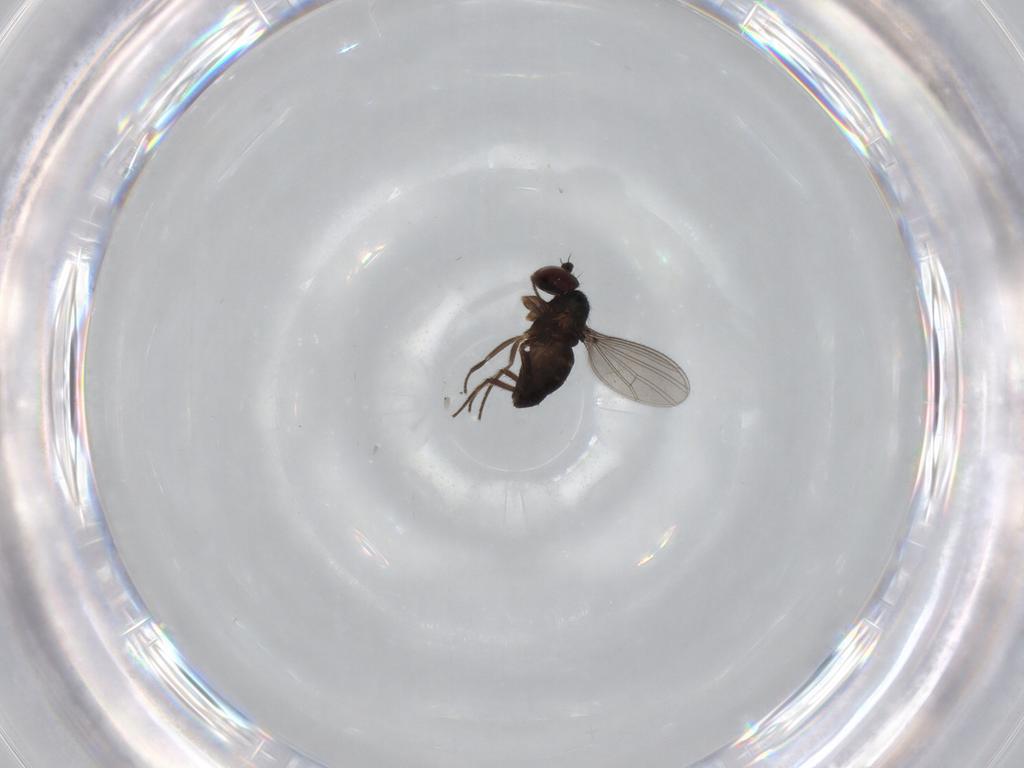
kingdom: Animalia
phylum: Arthropoda
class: Insecta
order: Diptera
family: Dolichopodidae
